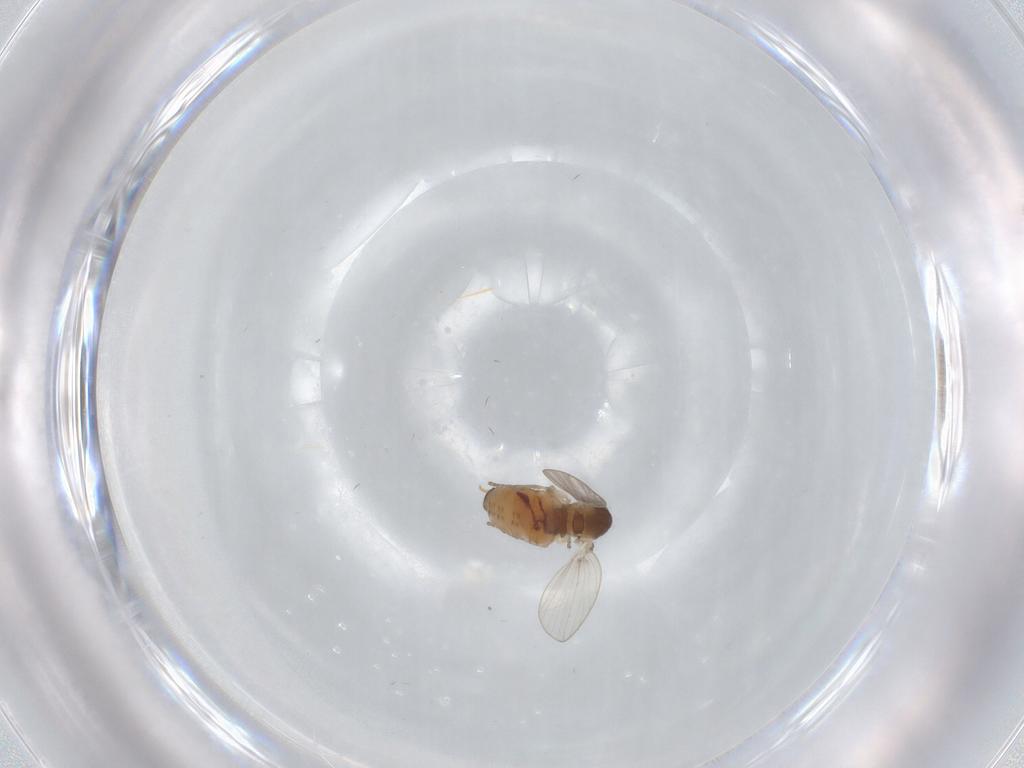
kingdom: Animalia
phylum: Arthropoda
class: Insecta
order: Diptera
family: Psychodidae
